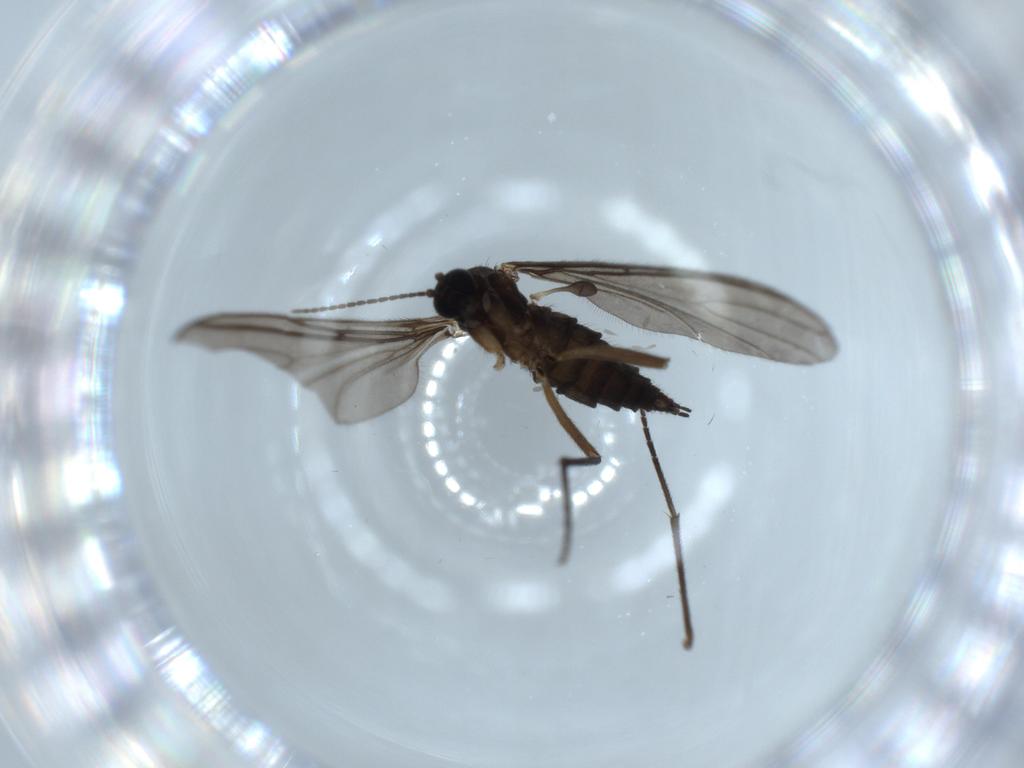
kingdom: Animalia
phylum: Arthropoda
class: Insecta
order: Diptera
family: Sciaridae
